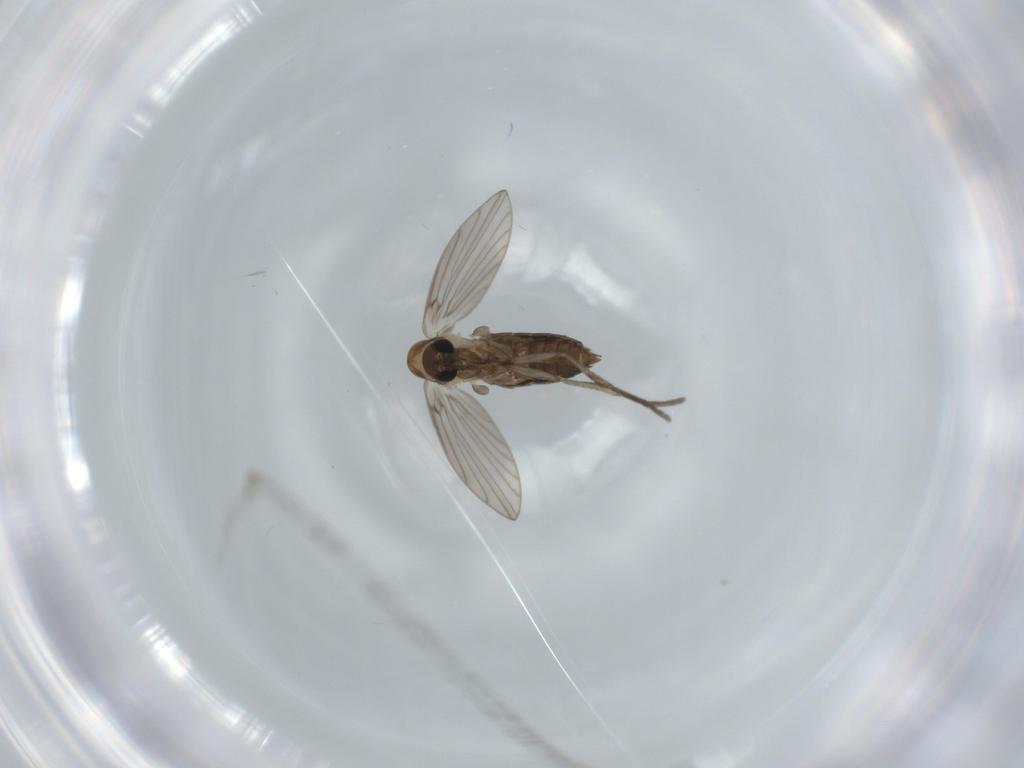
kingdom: Animalia
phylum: Arthropoda
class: Insecta
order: Diptera
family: Psychodidae
